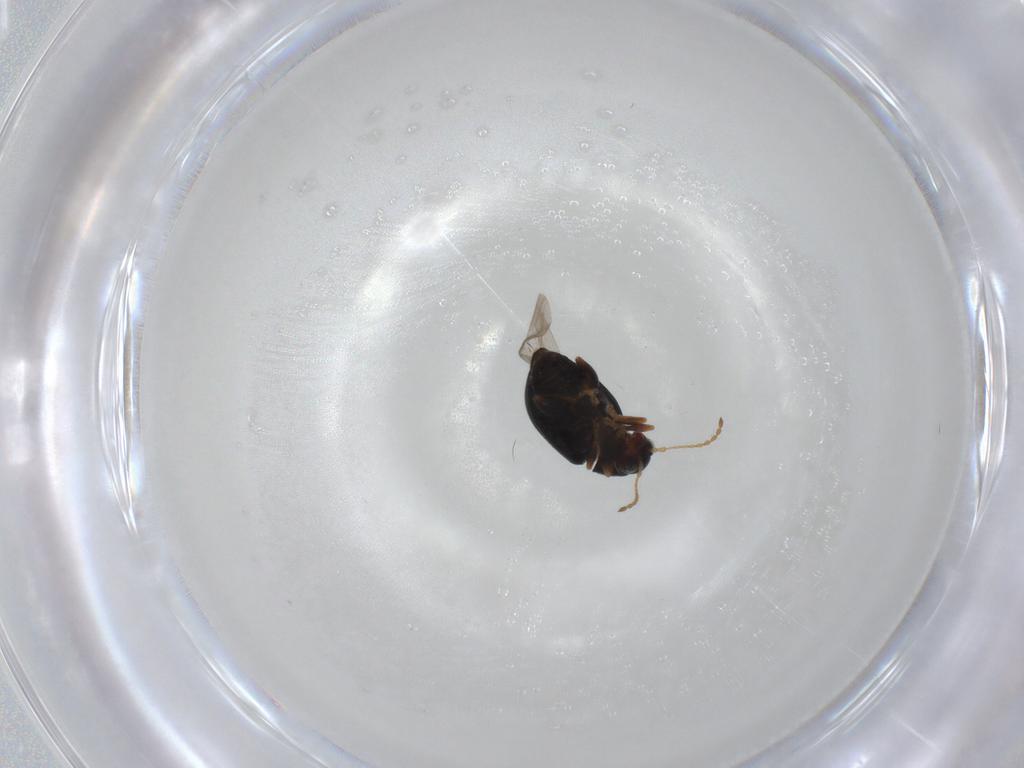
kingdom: Animalia
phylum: Arthropoda
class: Insecta
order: Coleoptera
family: Chrysomelidae
